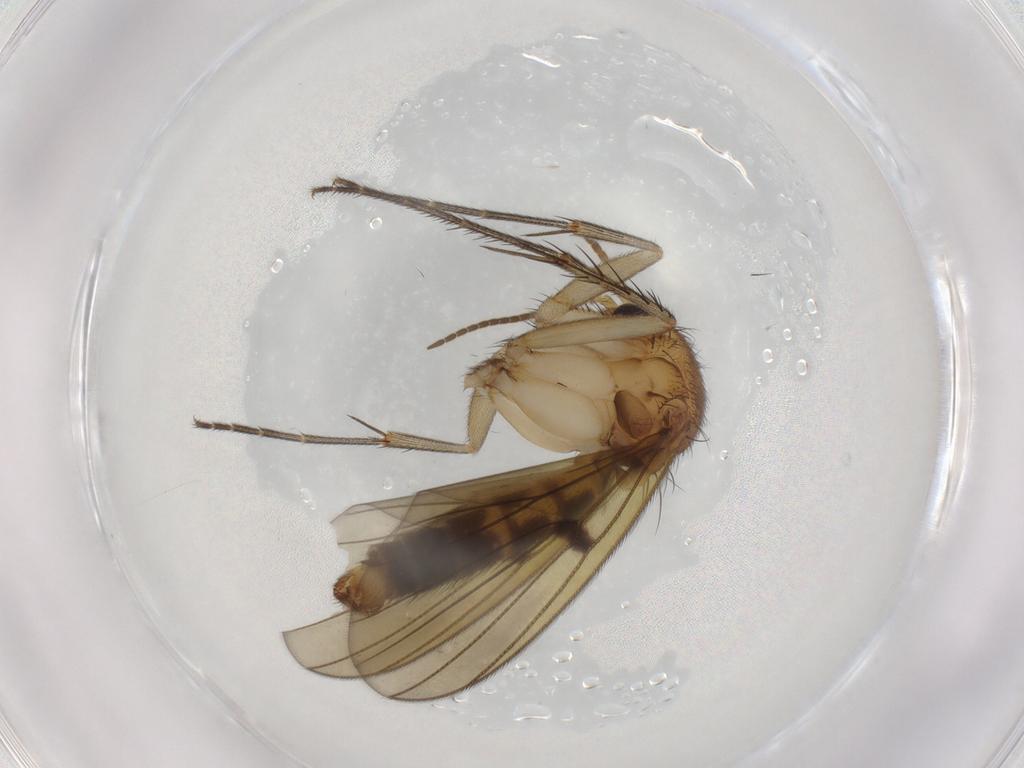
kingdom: Animalia
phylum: Arthropoda
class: Insecta
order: Diptera
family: Mycetophilidae
